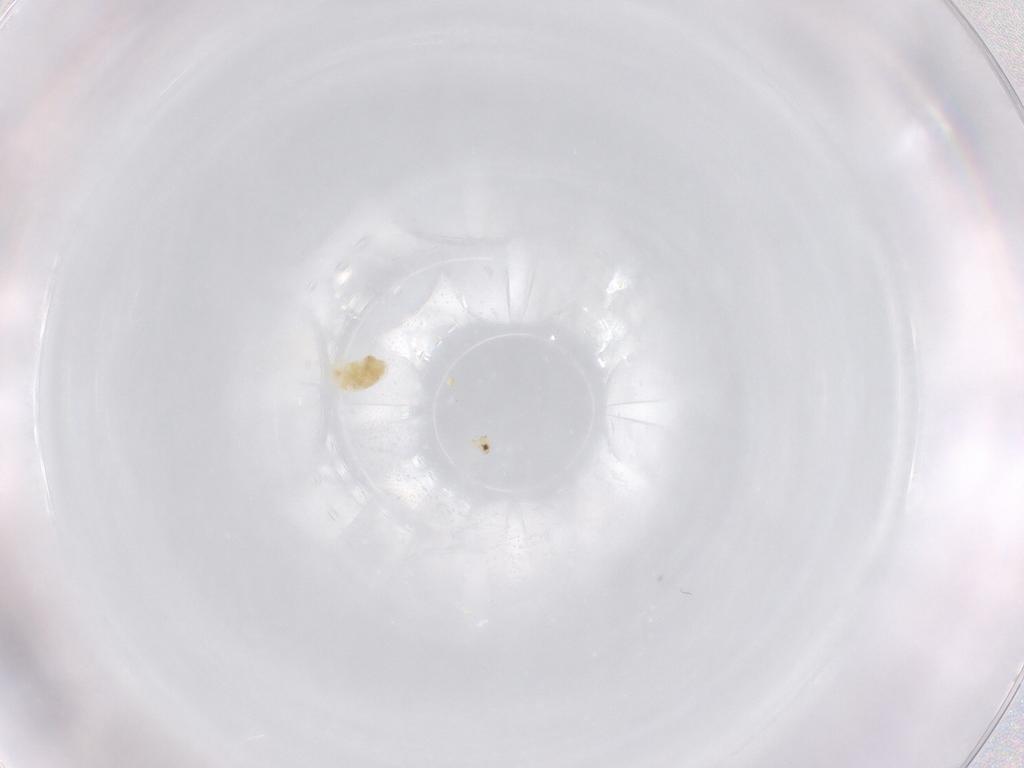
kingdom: Animalia
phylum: Arthropoda
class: Arachnida
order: Trombidiformes
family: Eupodidae
